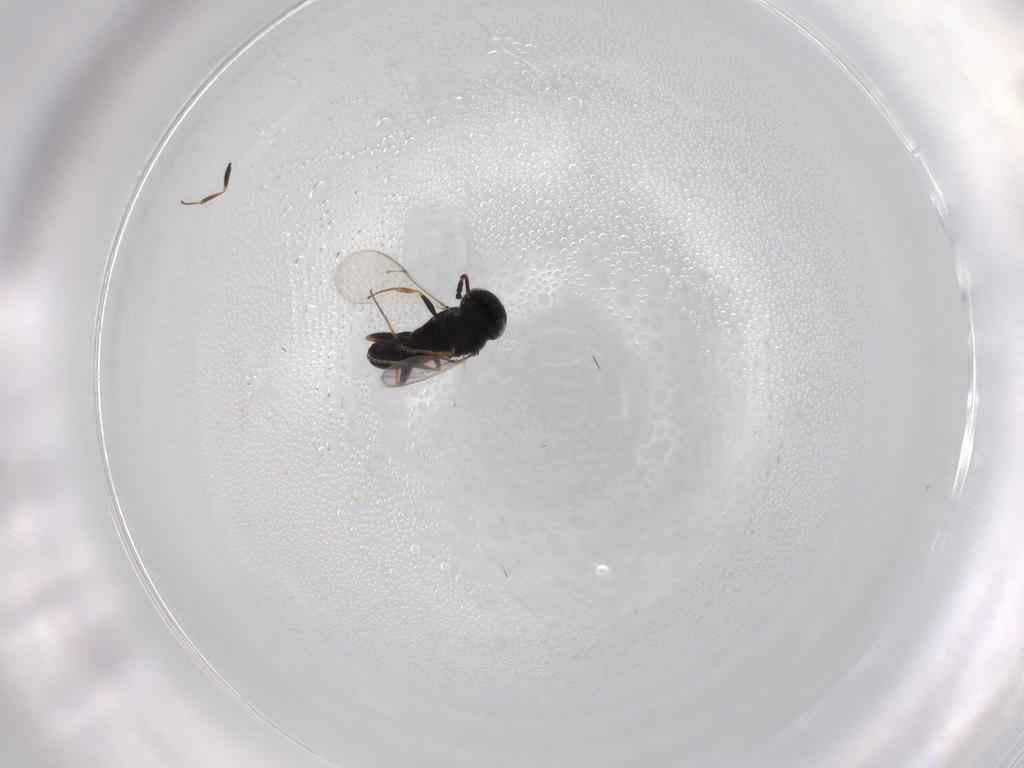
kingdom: Animalia
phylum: Arthropoda
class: Insecta
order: Hymenoptera
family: Scelionidae
